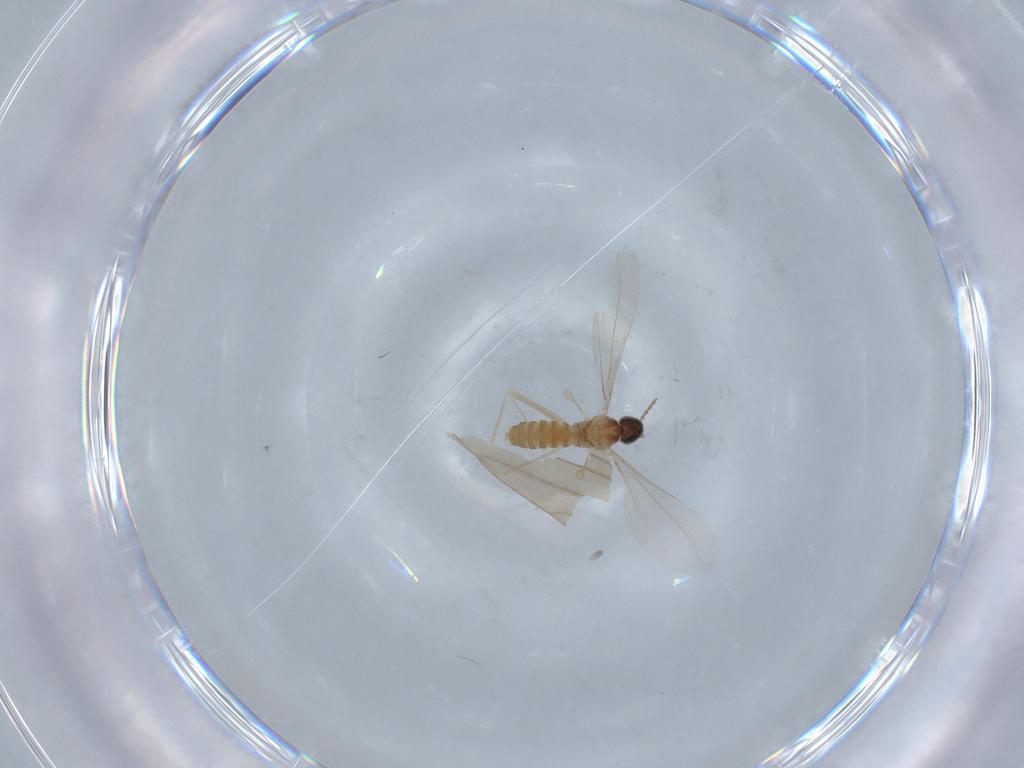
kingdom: Animalia
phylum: Arthropoda
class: Insecta
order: Diptera
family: Cecidomyiidae
